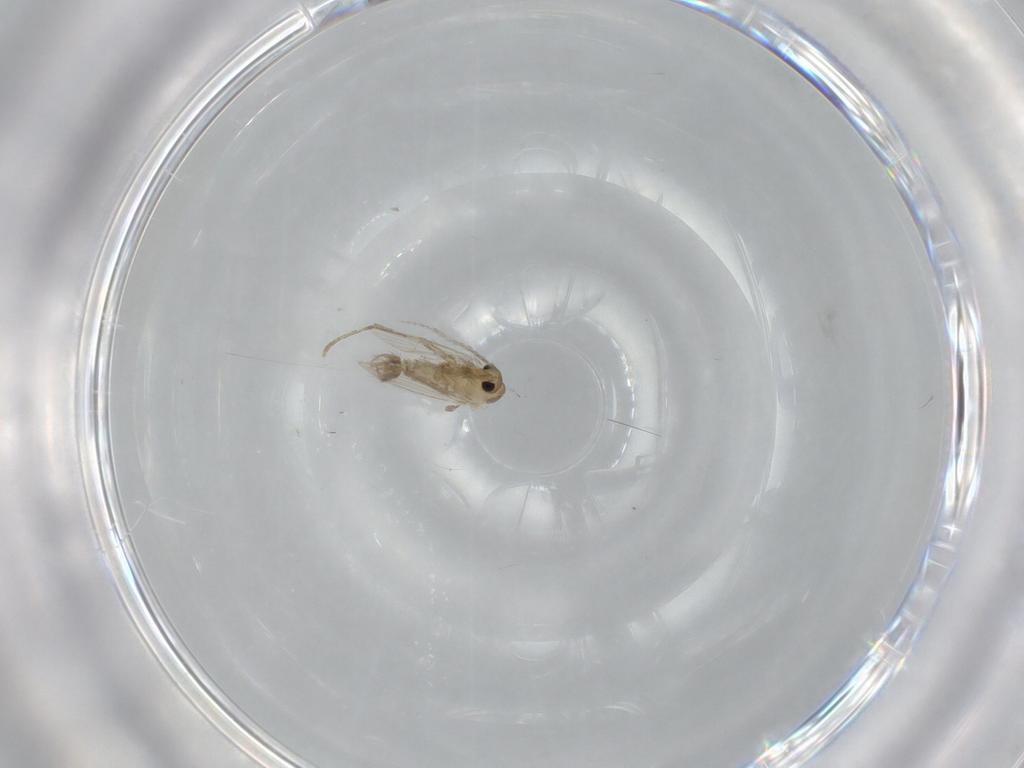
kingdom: Animalia
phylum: Arthropoda
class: Insecta
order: Diptera
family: Psychodidae
